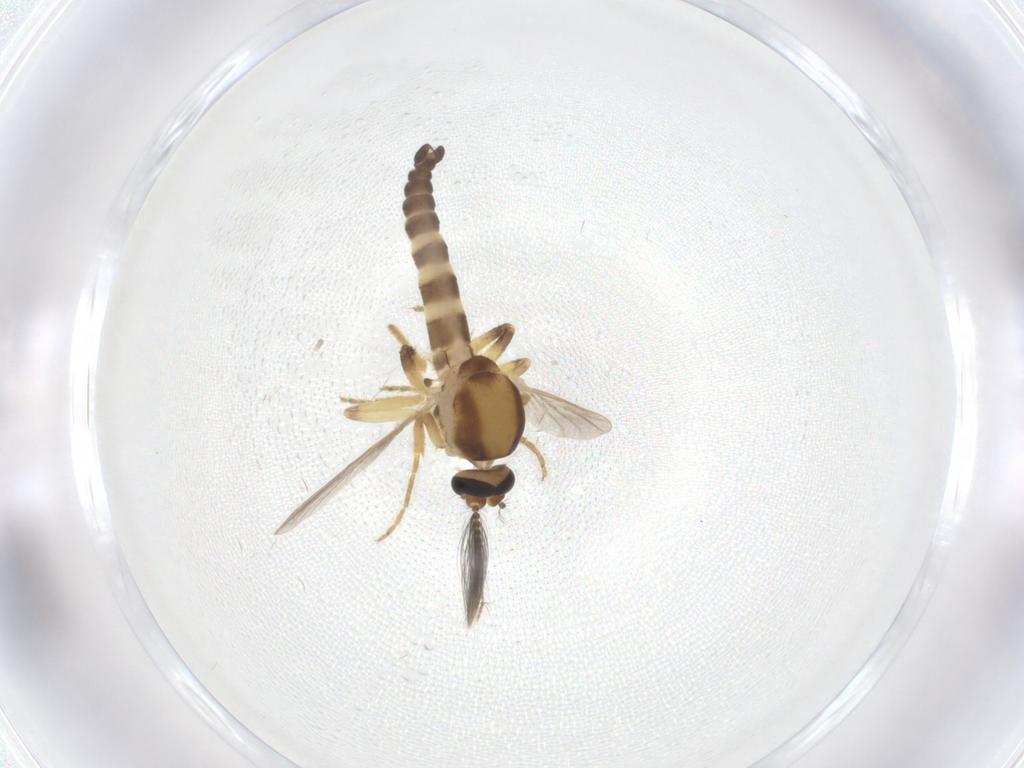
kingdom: Animalia
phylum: Arthropoda
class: Insecta
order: Diptera
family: Ceratopogonidae
